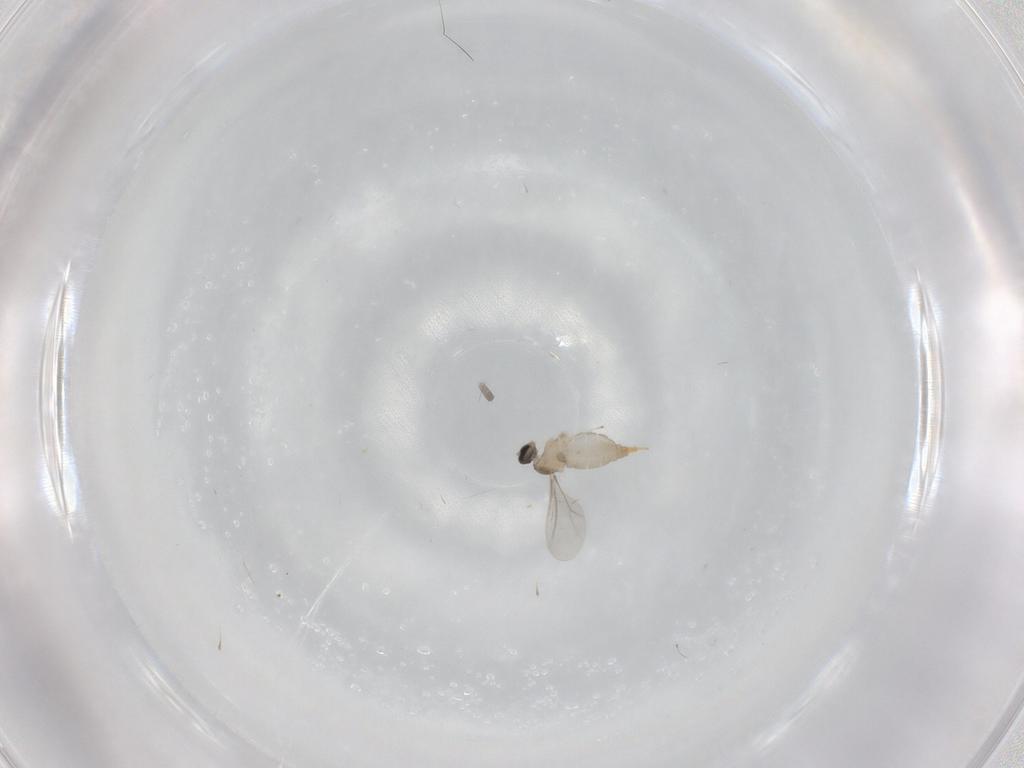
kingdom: Animalia
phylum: Arthropoda
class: Insecta
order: Diptera
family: Cecidomyiidae
